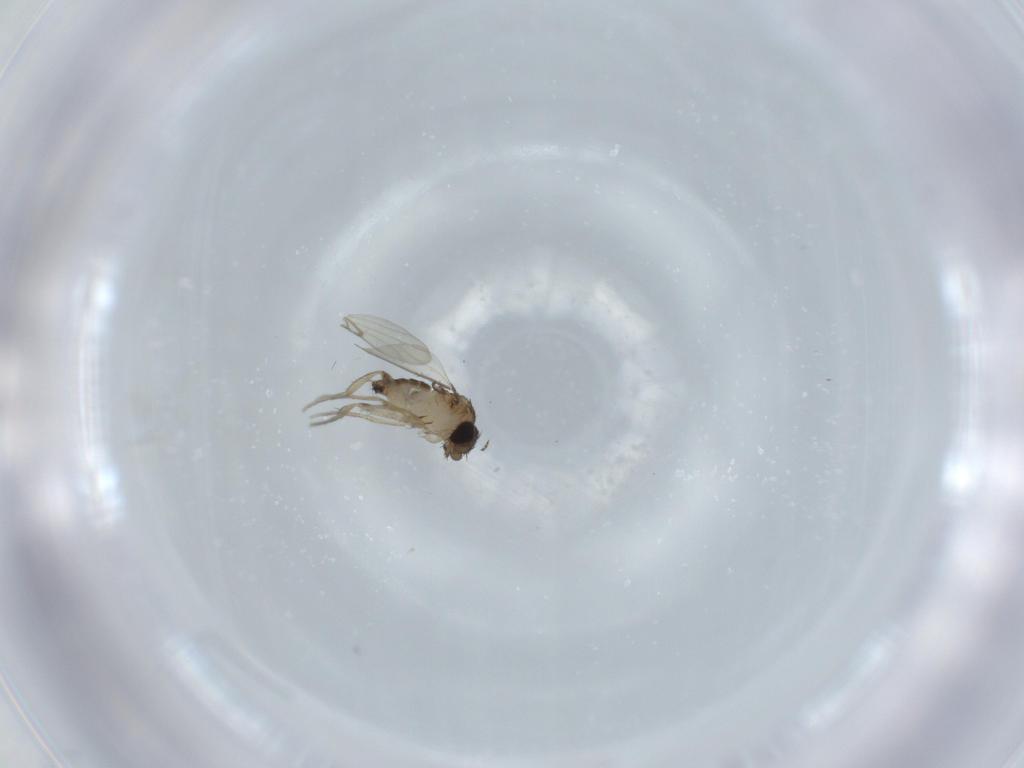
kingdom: Animalia
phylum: Arthropoda
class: Insecta
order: Diptera
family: Phoridae
